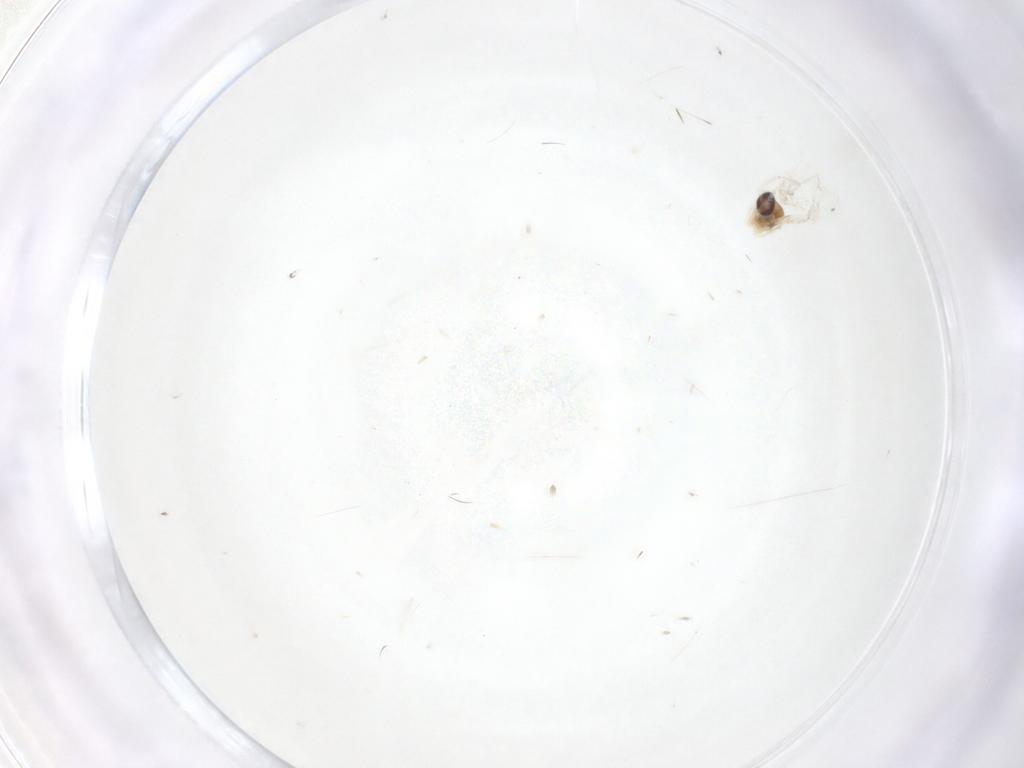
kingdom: Animalia
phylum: Arthropoda
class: Insecta
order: Diptera
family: Cecidomyiidae
